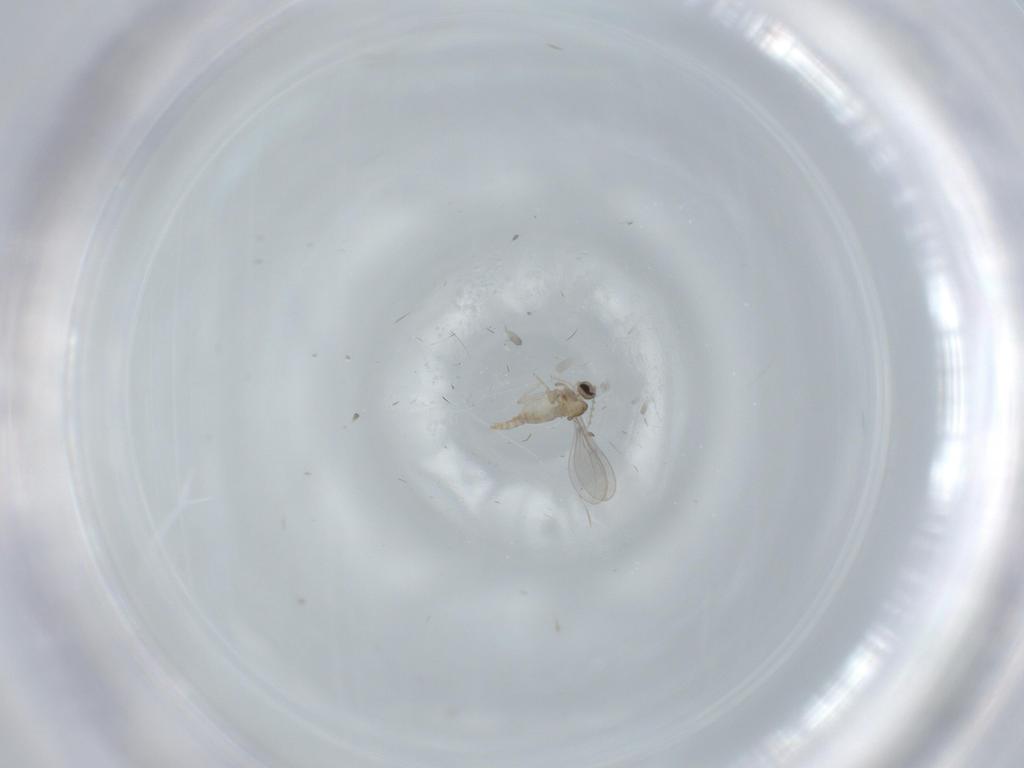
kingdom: Animalia
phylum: Arthropoda
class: Insecta
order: Diptera
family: Cecidomyiidae
